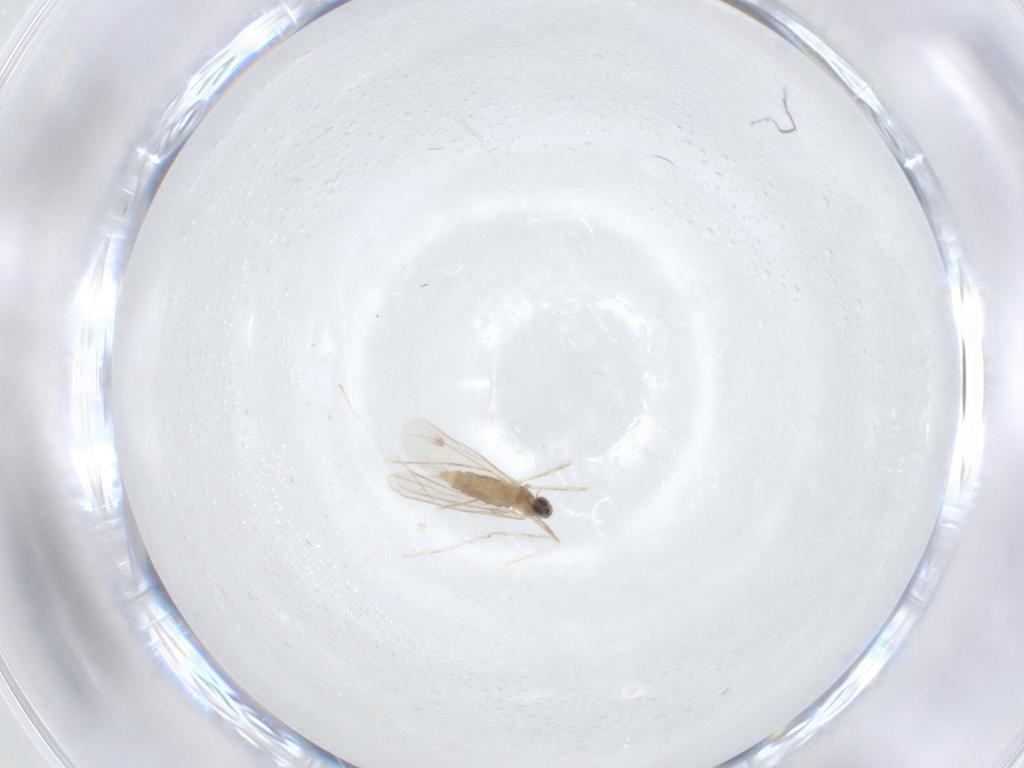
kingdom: Animalia
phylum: Arthropoda
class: Insecta
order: Diptera
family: Cecidomyiidae
